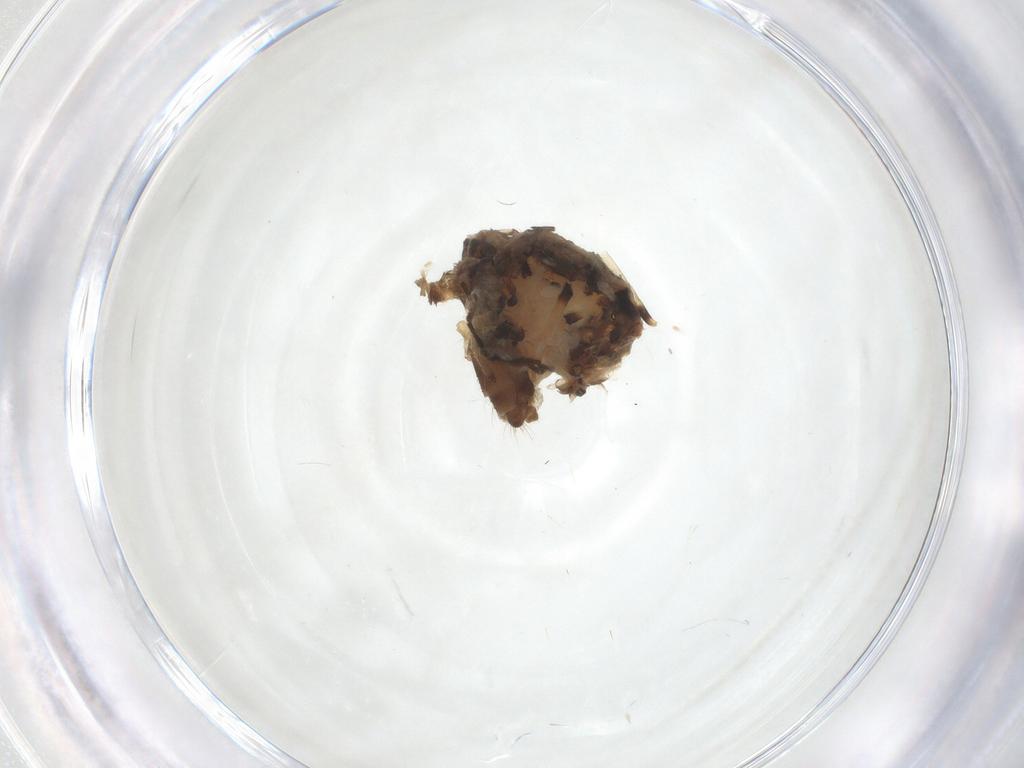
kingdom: Animalia
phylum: Arthropoda
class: Insecta
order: Diptera
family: Chironomidae
